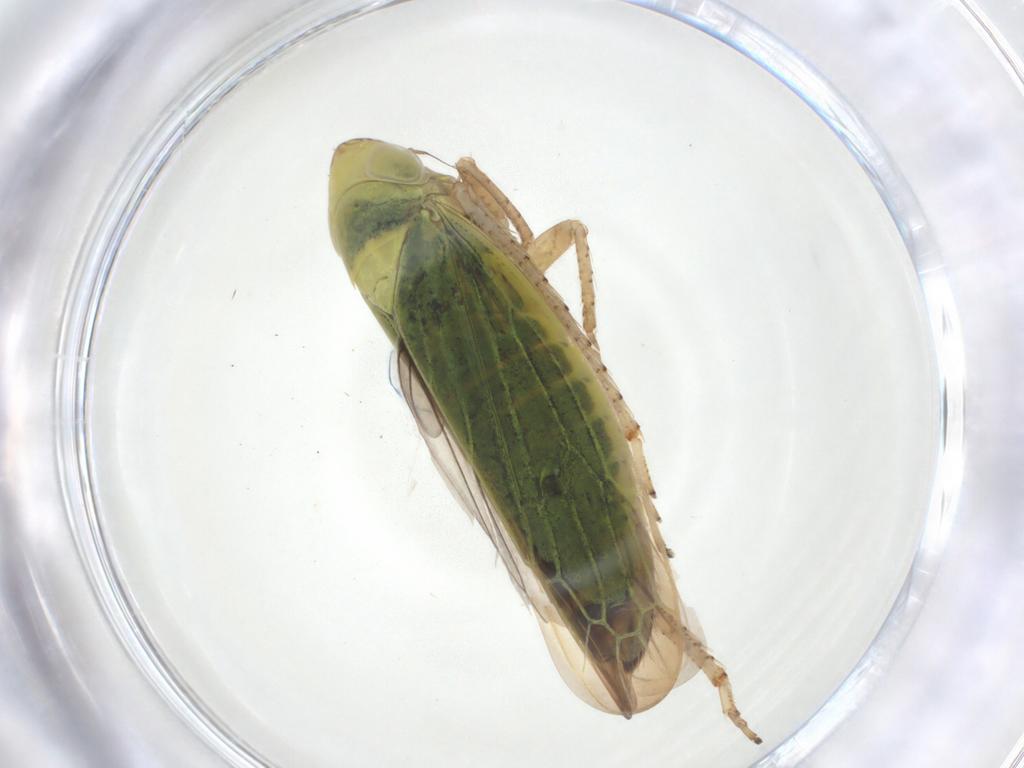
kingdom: Animalia
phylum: Arthropoda
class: Insecta
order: Hemiptera
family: Cicadellidae
